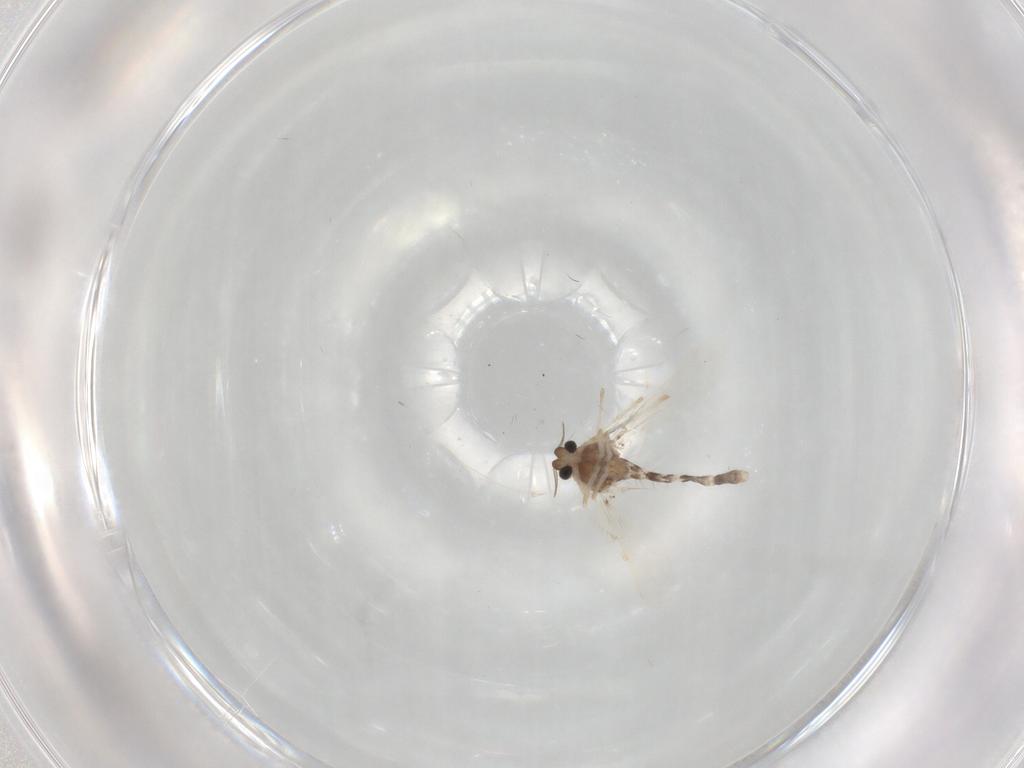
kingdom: Animalia
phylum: Arthropoda
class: Insecta
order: Diptera
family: Chironomidae
